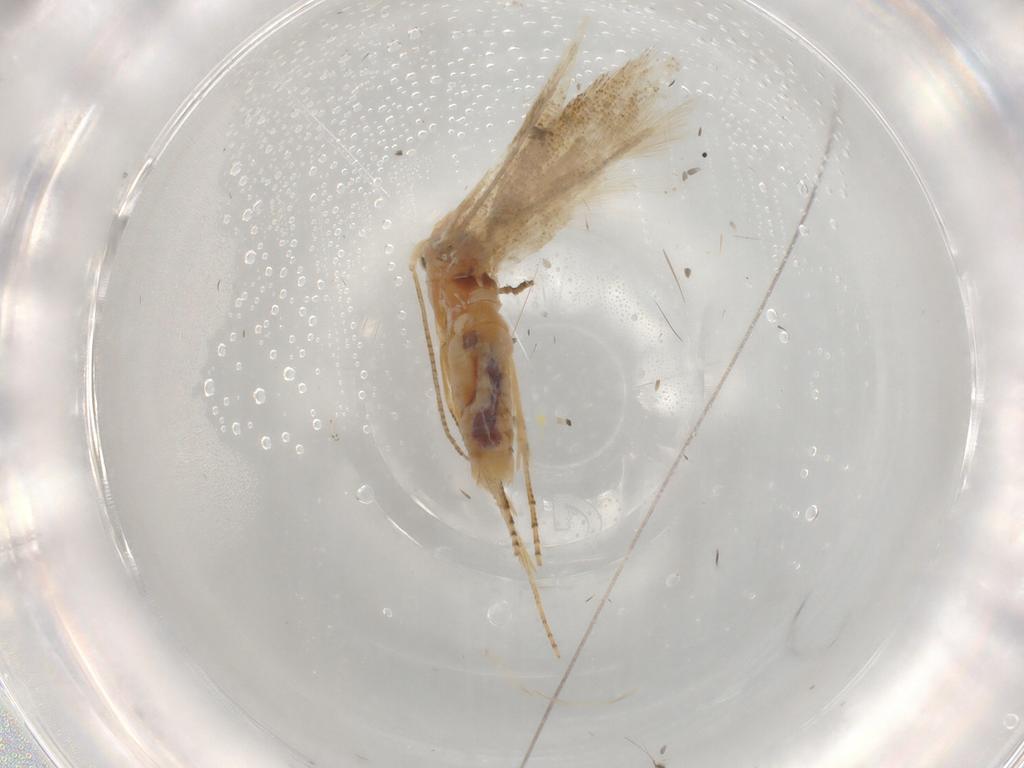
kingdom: Animalia
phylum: Arthropoda
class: Insecta
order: Lepidoptera
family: Bucculatricidae
